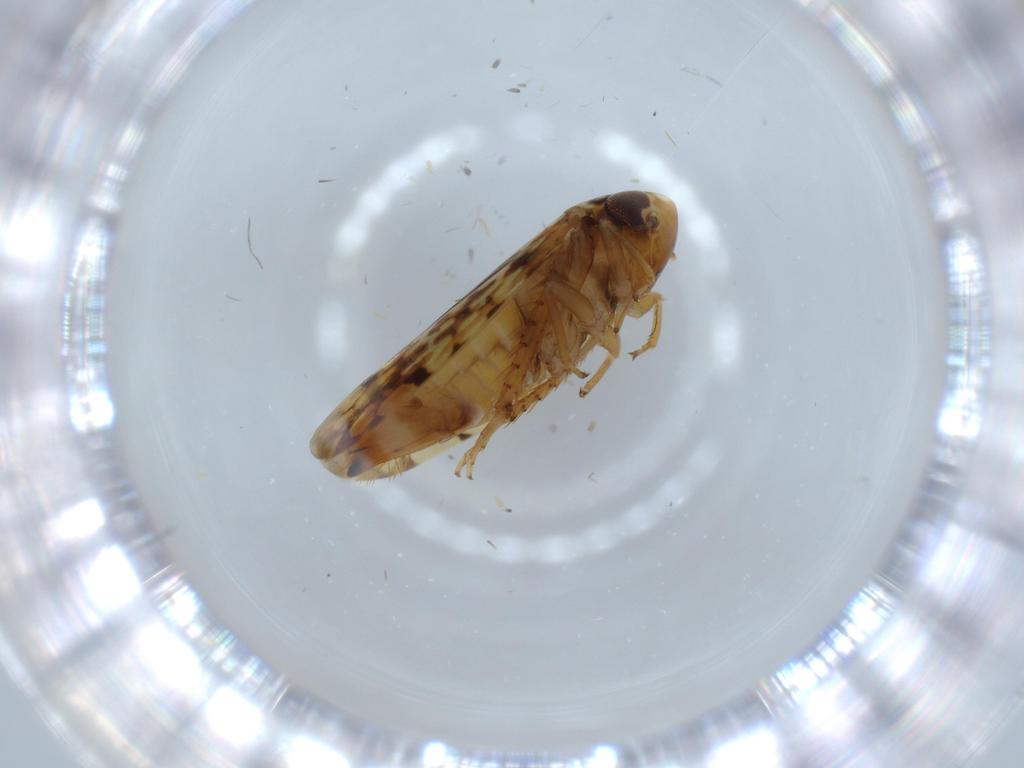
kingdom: Animalia
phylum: Arthropoda
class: Insecta
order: Hemiptera
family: Cicadellidae
